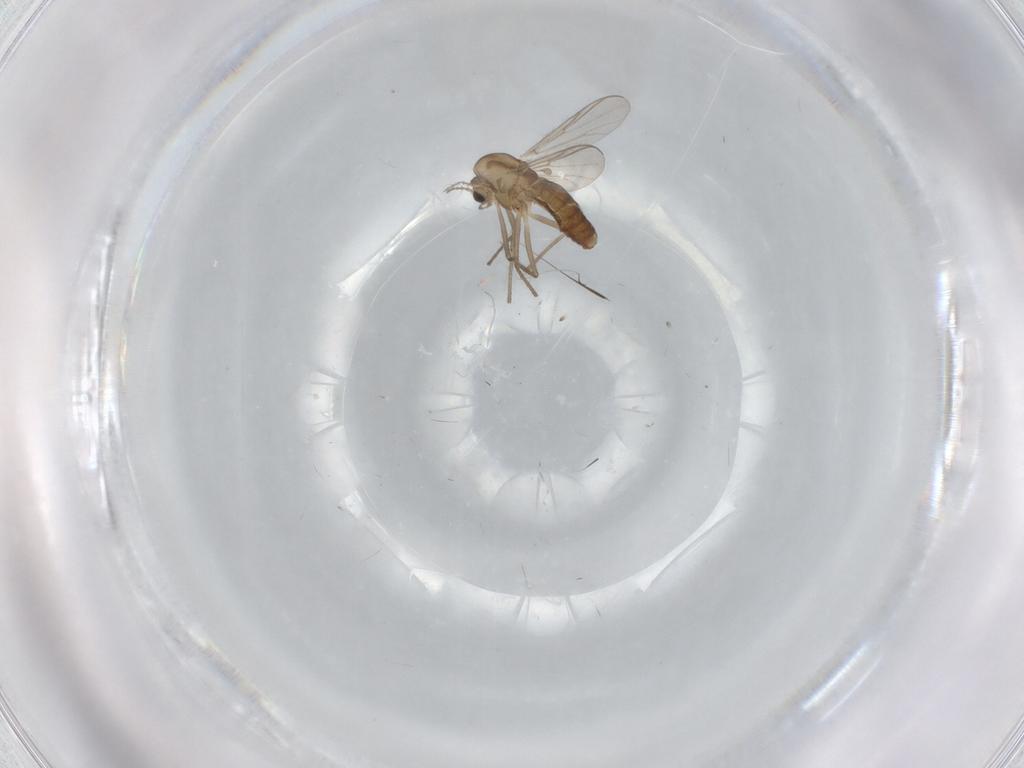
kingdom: Animalia
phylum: Arthropoda
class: Insecta
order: Diptera
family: Chironomidae
